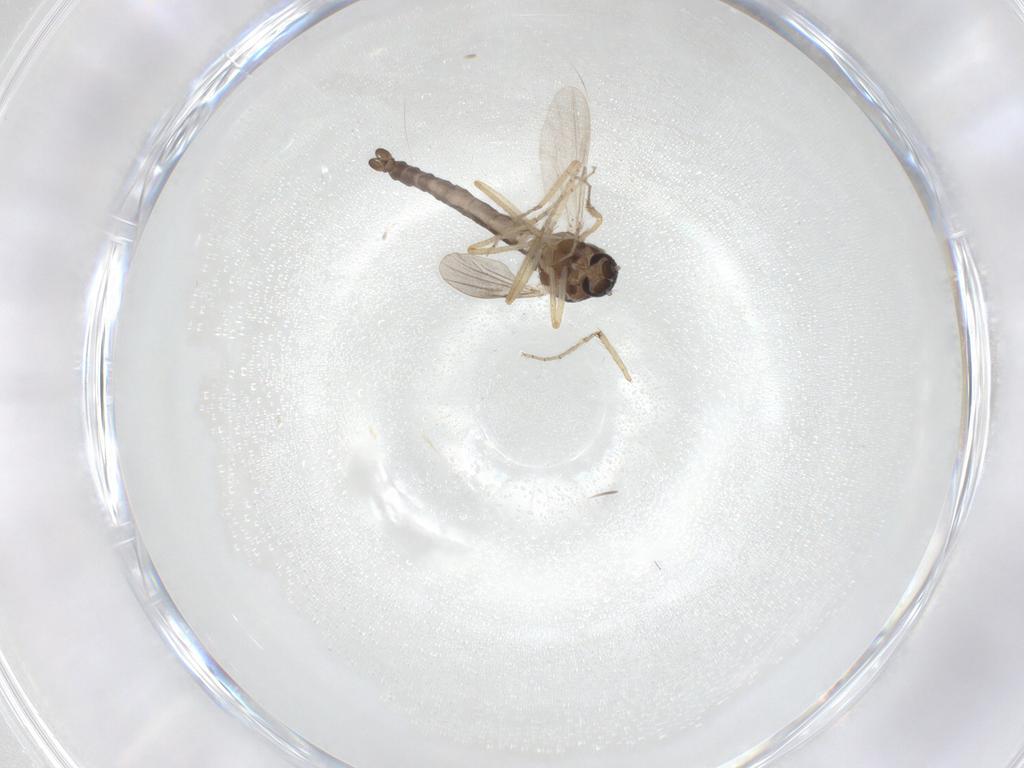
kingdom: Animalia
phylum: Arthropoda
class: Insecta
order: Diptera
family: Ceratopogonidae
